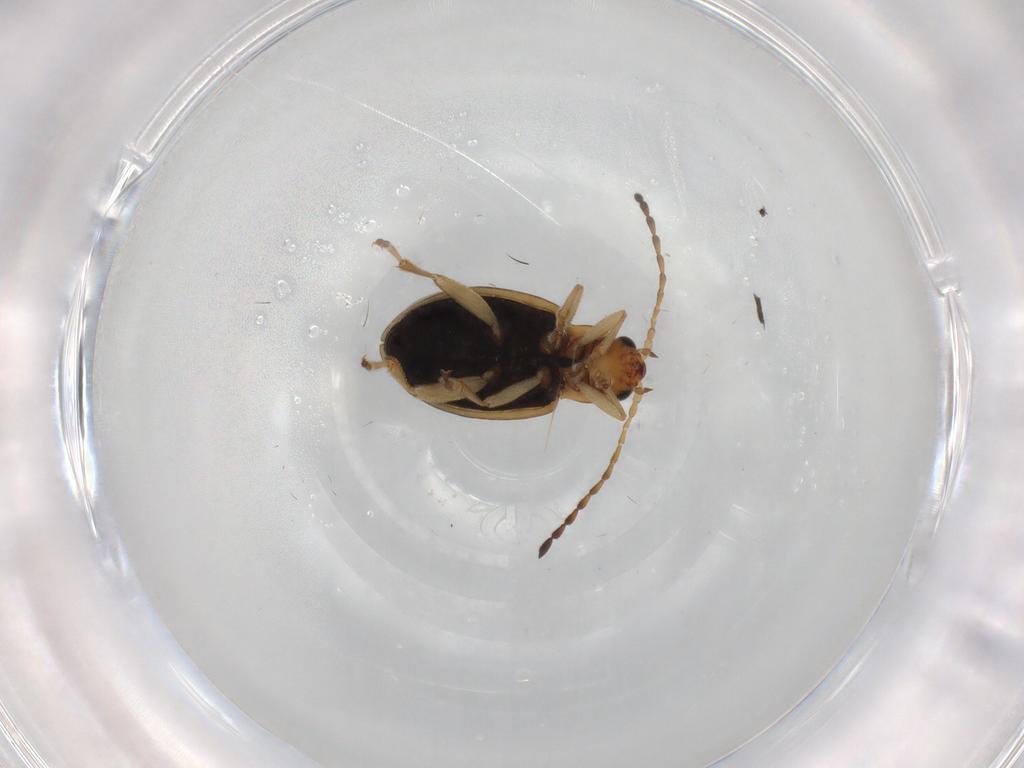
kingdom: Animalia
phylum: Arthropoda
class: Insecta
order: Coleoptera
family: Chrysomelidae
